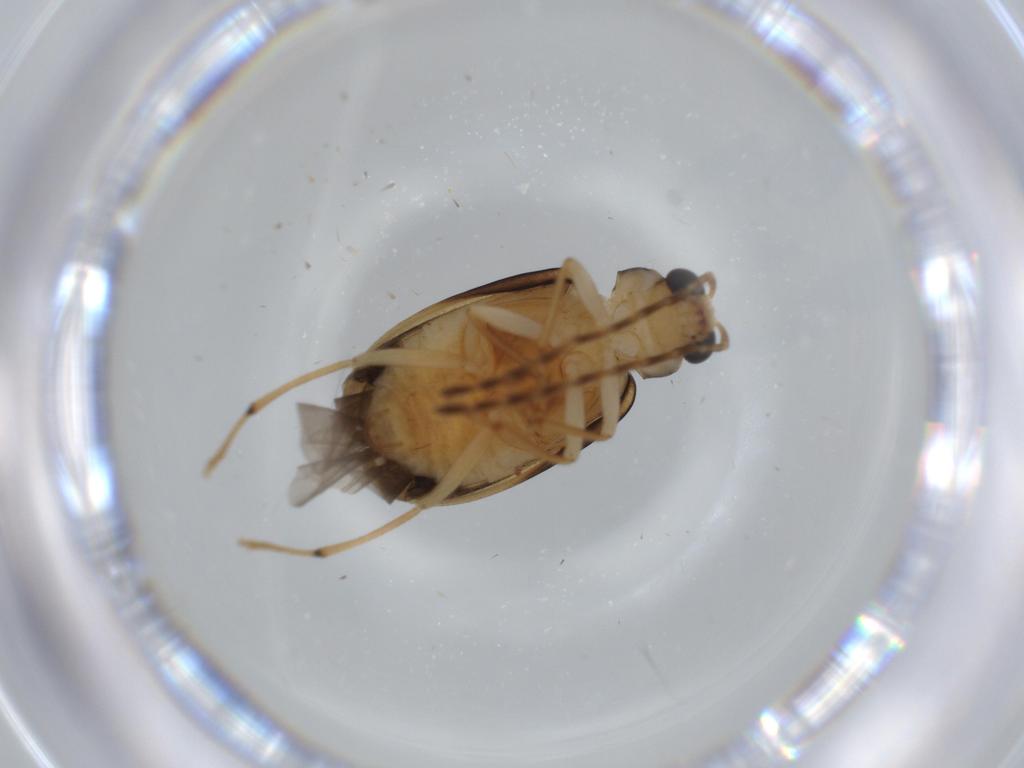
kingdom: Animalia
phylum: Arthropoda
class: Insecta
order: Coleoptera
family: Chrysomelidae
